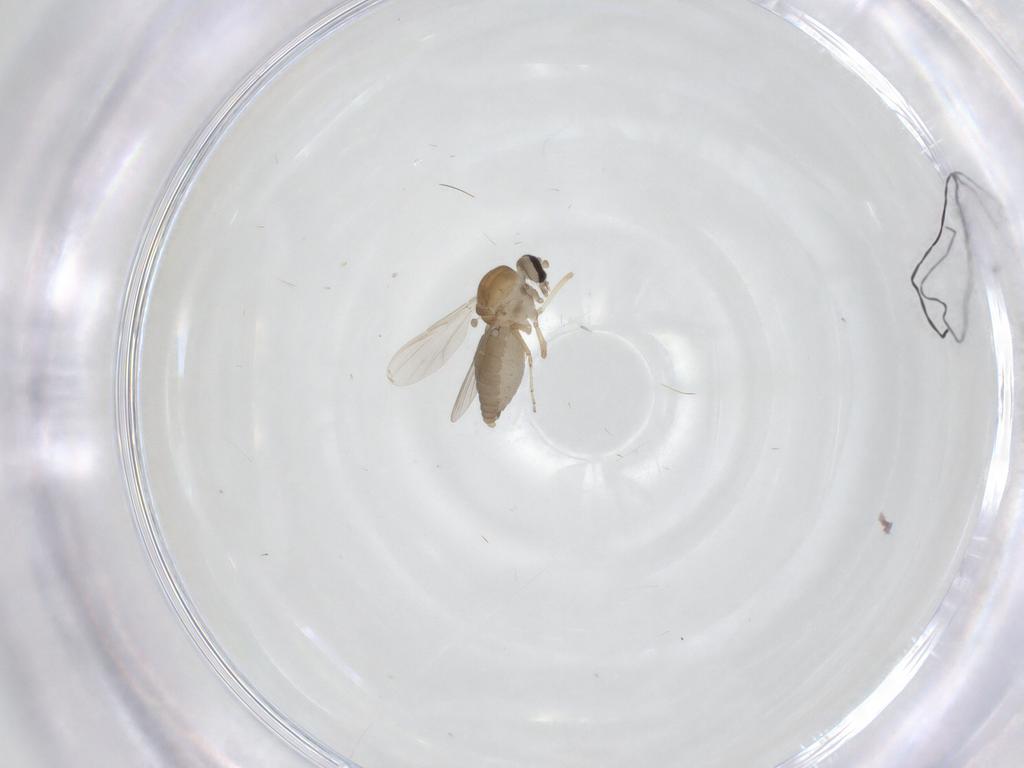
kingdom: Animalia
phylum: Arthropoda
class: Insecta
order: Diptera
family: Ceratopogonidae
